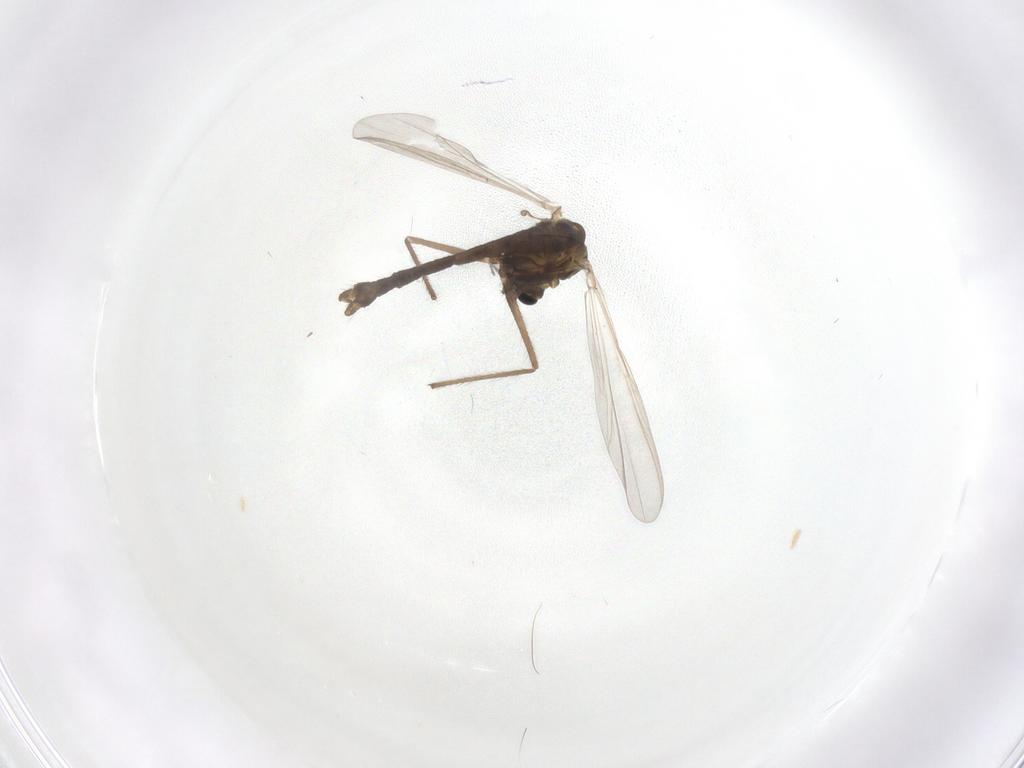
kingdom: Animalia
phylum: Arthropoda
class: Insecta
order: Diptera
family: Chironomidae
